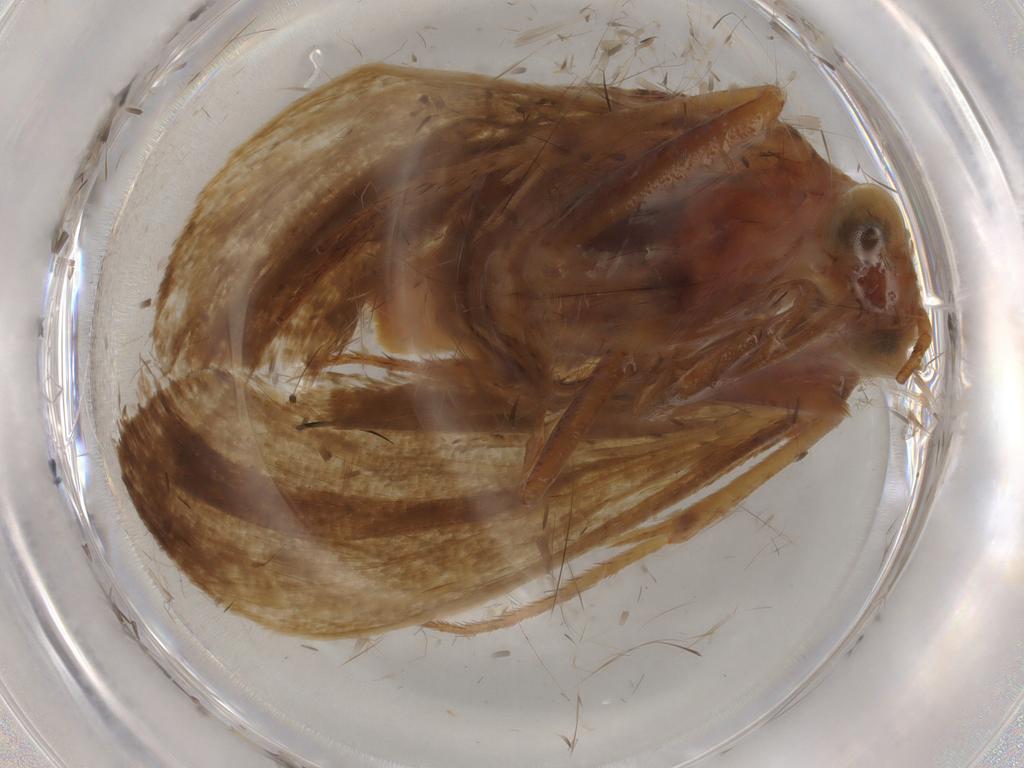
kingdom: Animalia
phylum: Arthropoda
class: Insecta
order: Lepidoptera
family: Pyralidae
